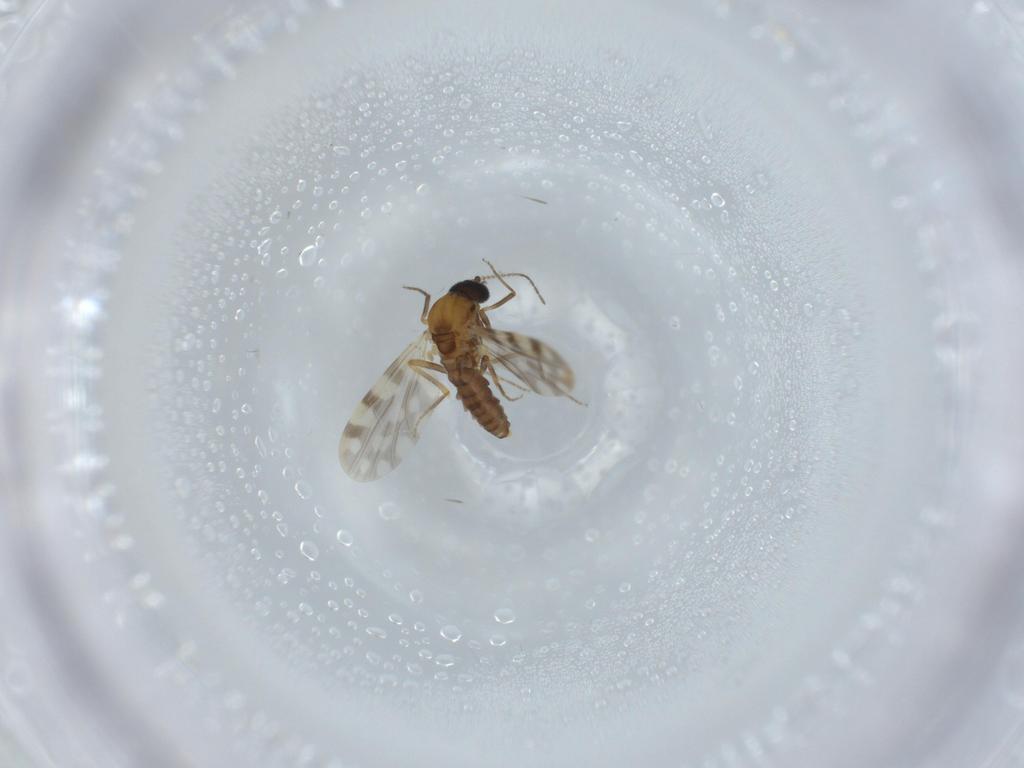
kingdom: Animalia
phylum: Arthropoda
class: Insecta
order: Diptera
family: Ceratopogonidae
